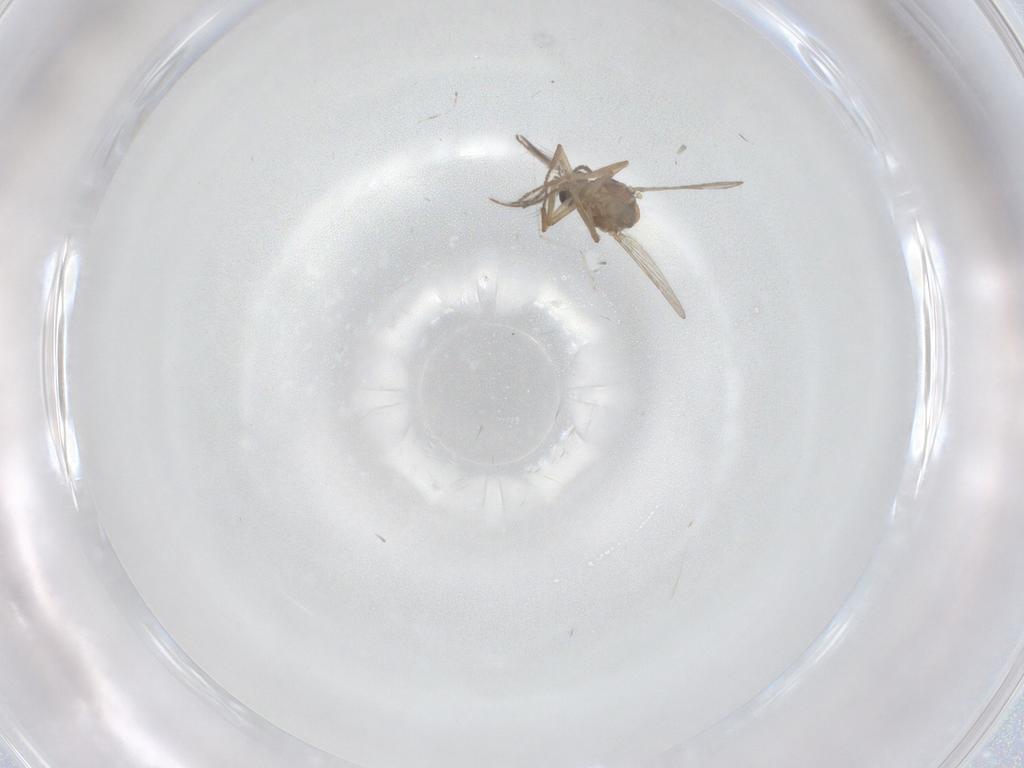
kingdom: Animalia
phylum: Arthropoda
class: Insecta
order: Diptera
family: Cecidomyiidae
